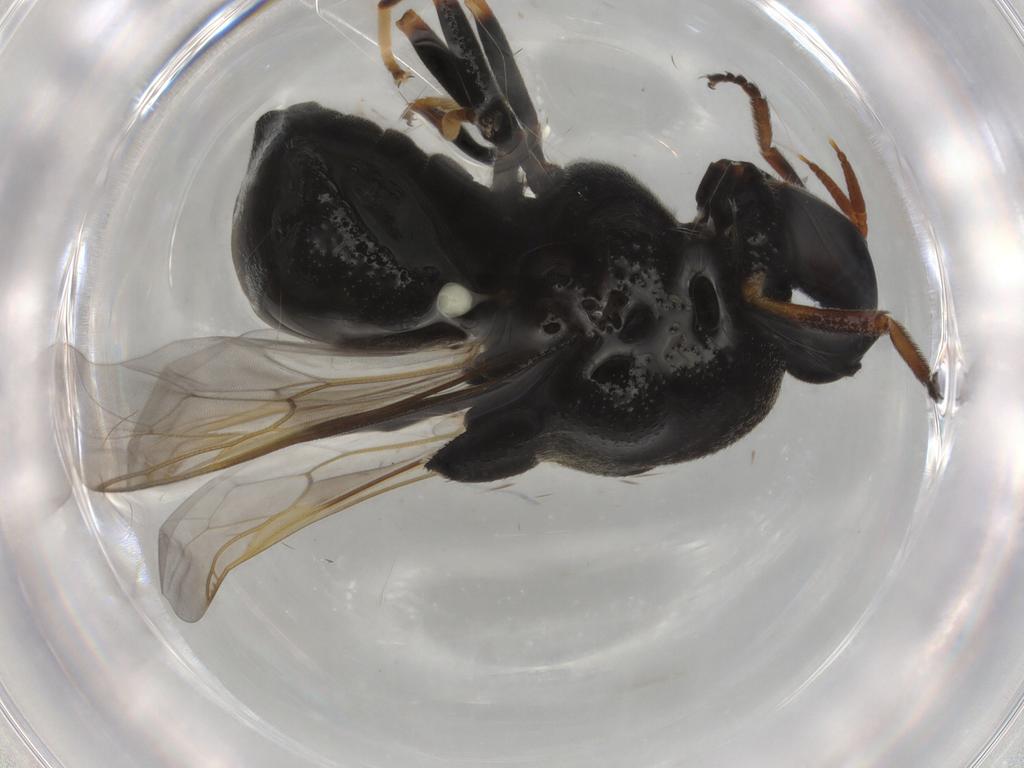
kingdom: Animalia
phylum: Arthropoda
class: Insecta
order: Diptera
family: Stratiomyidae
